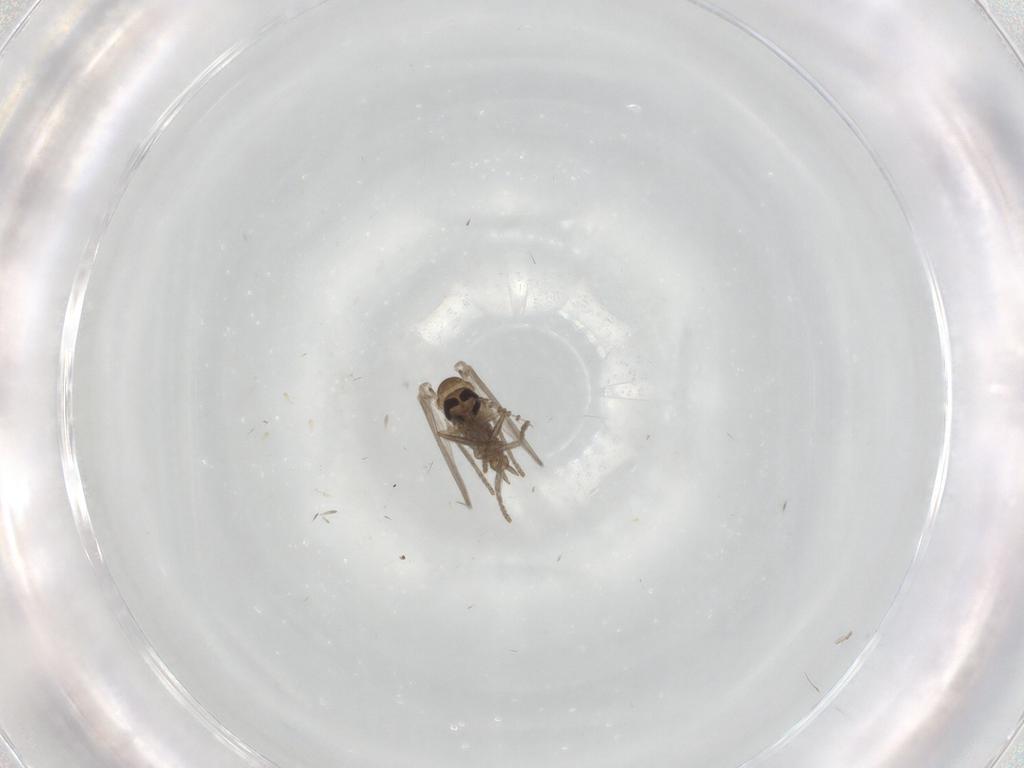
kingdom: Animalia
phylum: Arthropoda
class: Insecta
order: Diptera
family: Psychodidae
